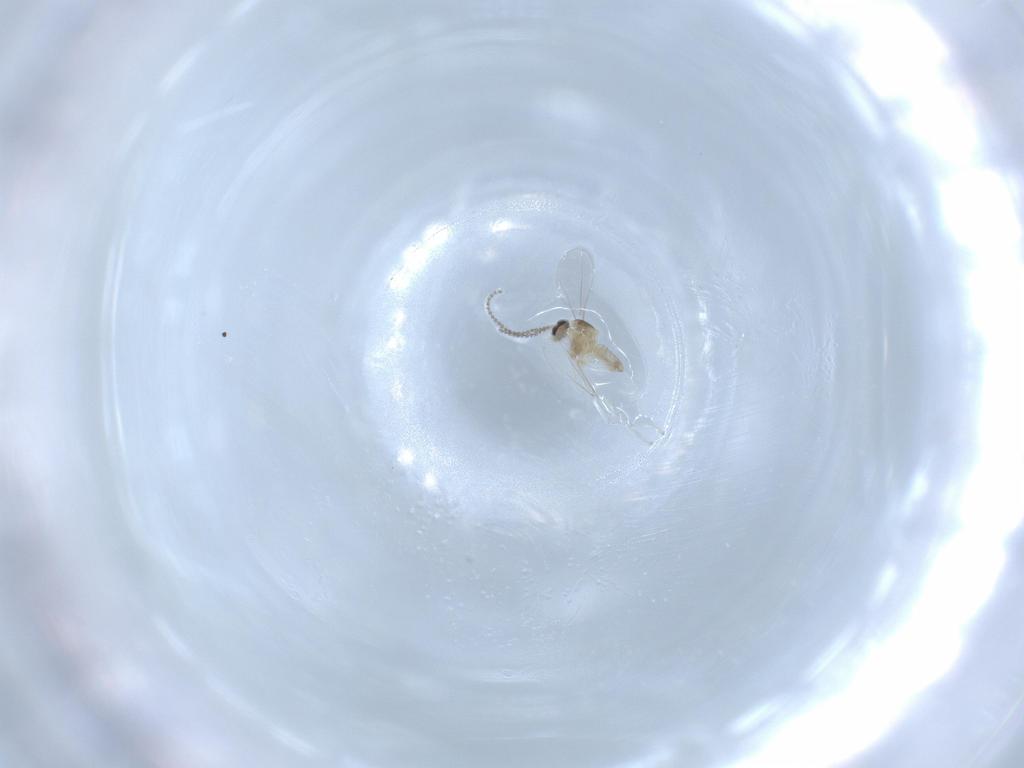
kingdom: Animalia
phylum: Arthropoda
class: Insecta
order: Diptera
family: Cecidomyiidae
